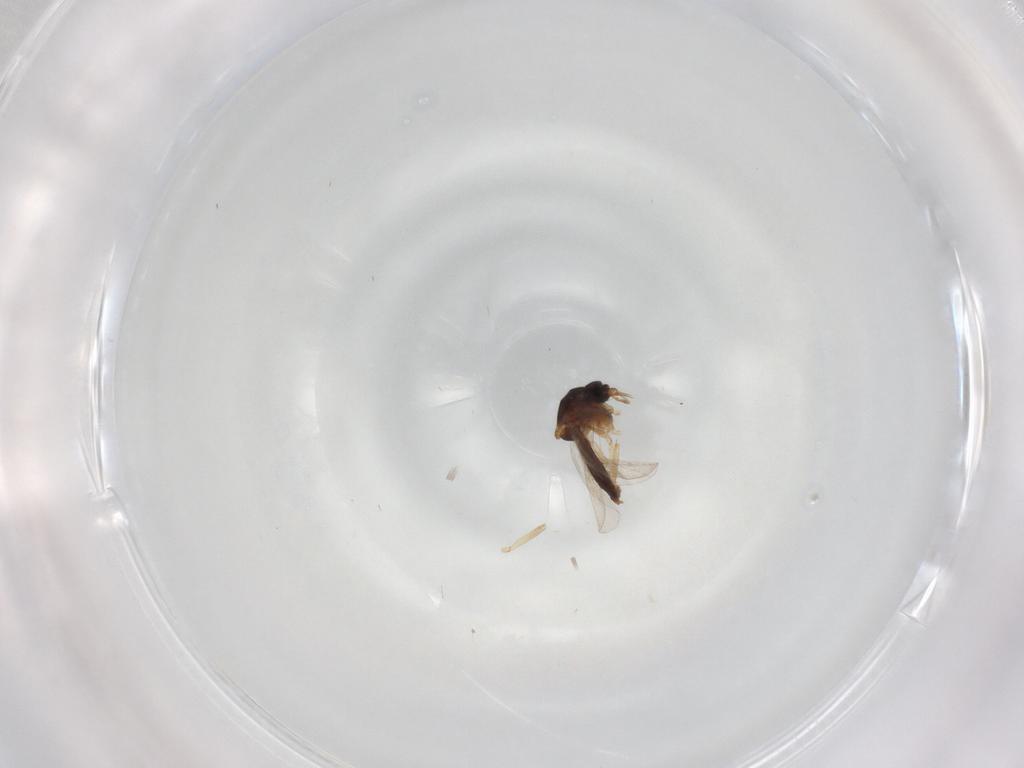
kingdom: Animalia
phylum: Arthropoda
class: Insecta
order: Diptera
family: Ceratopogonidae
